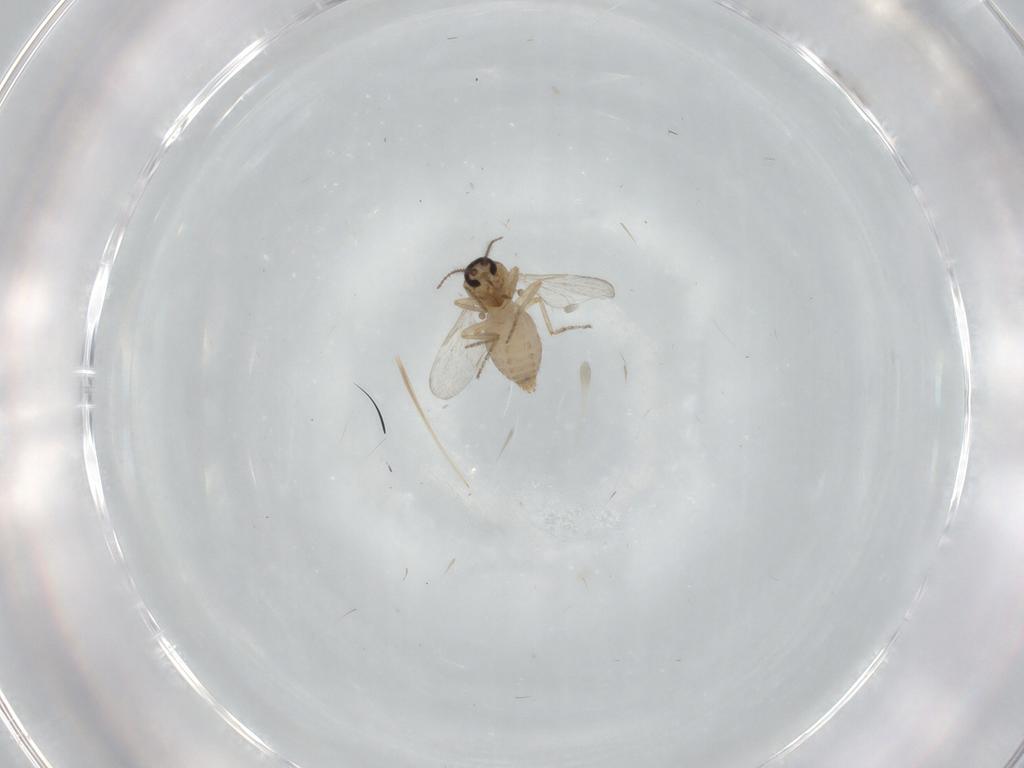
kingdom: Animalia
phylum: Arthropoda
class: Insecta
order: Diptera
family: Ceratopogonidae
